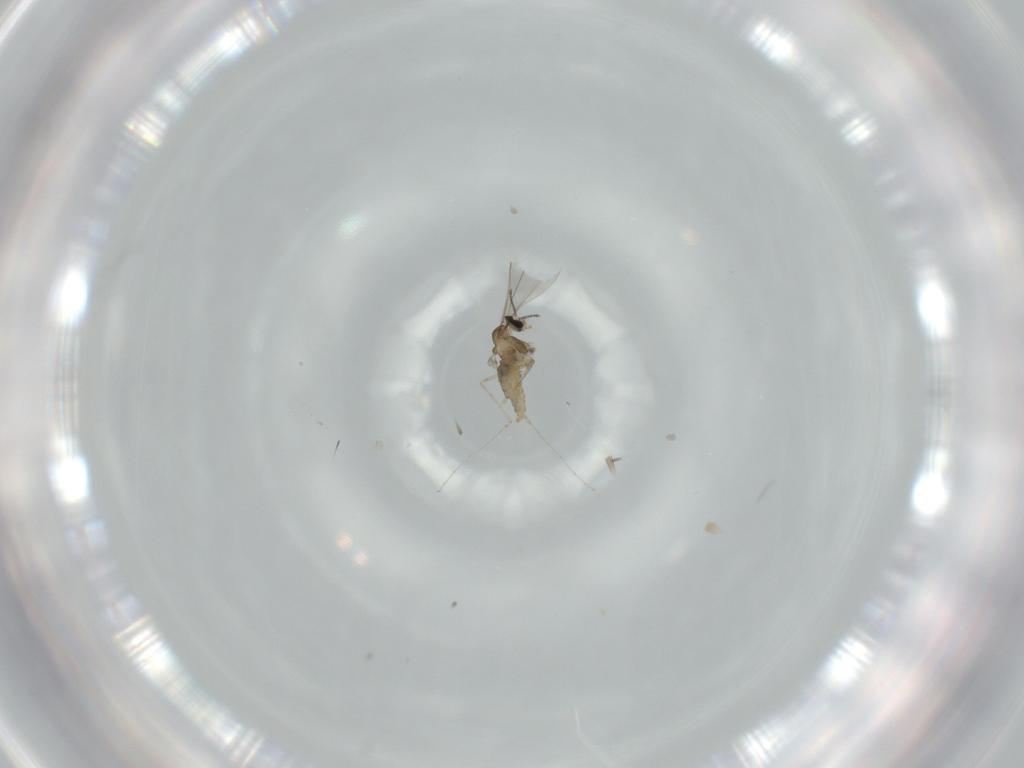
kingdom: Animalia
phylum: Arthropoda
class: Insecta
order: Diptera
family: Cecidomyiidae
